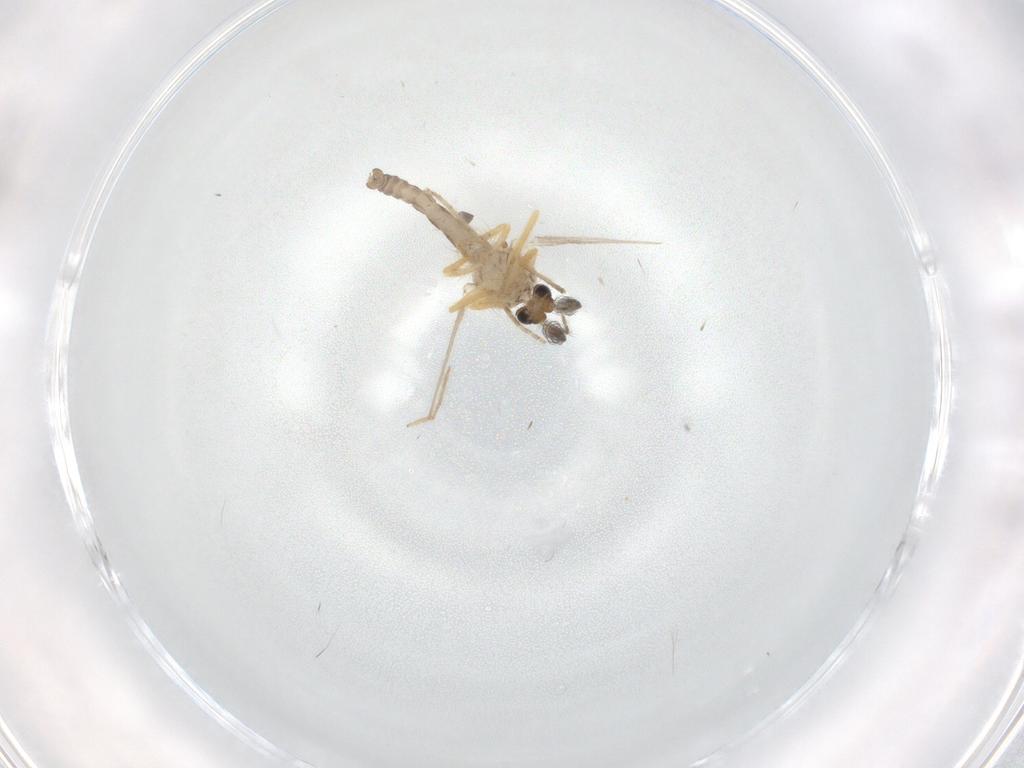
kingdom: Animalia
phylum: Arthropoda
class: Insecta
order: Diptera
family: Ceratopogonidae
